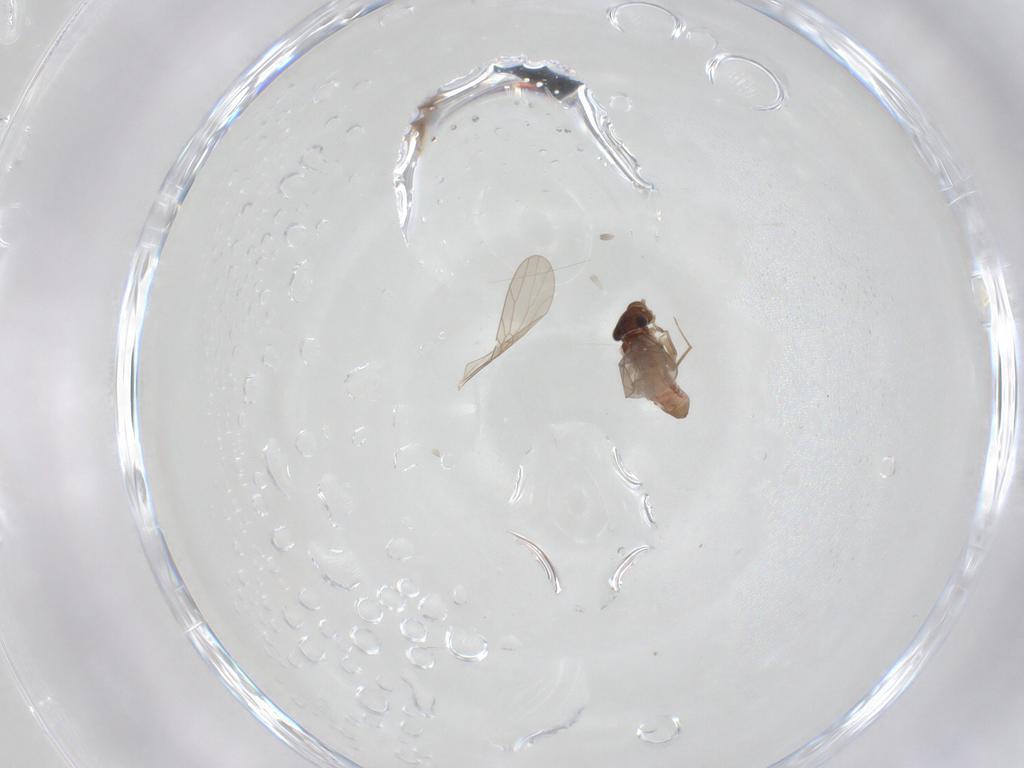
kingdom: Animalia
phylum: Arthropoda
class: Insecta
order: Psocodea
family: Lepidopsocidae
